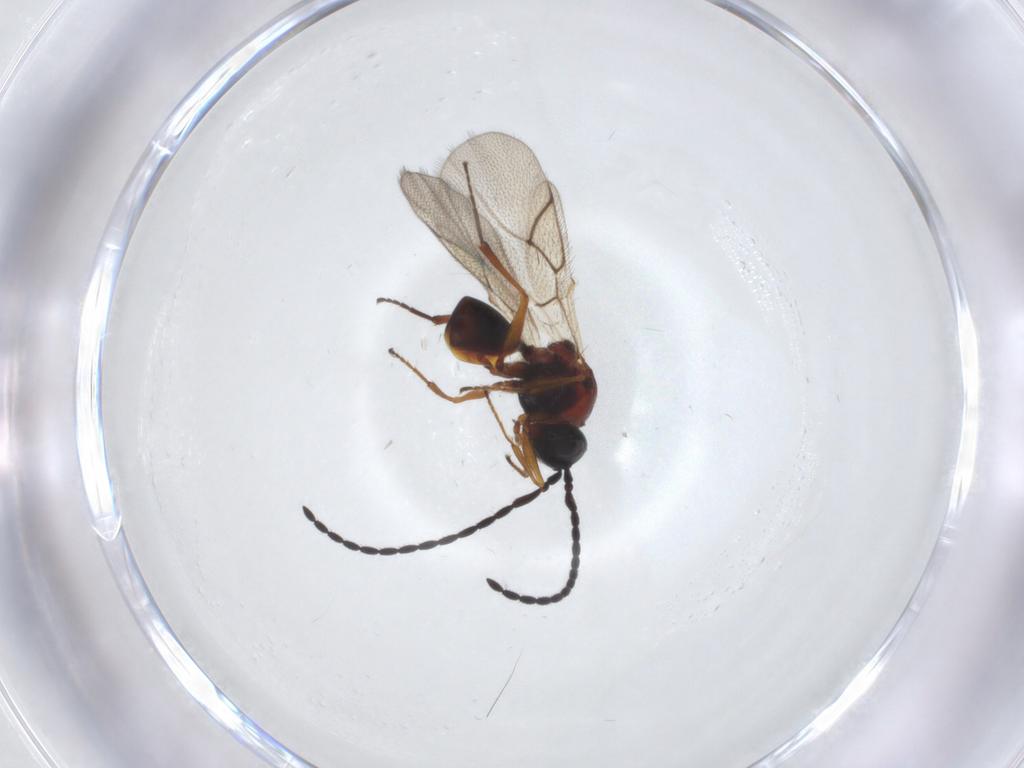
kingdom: Animalia
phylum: Arthropoda
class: Insecta
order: Hymenoptera
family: Figitidae
